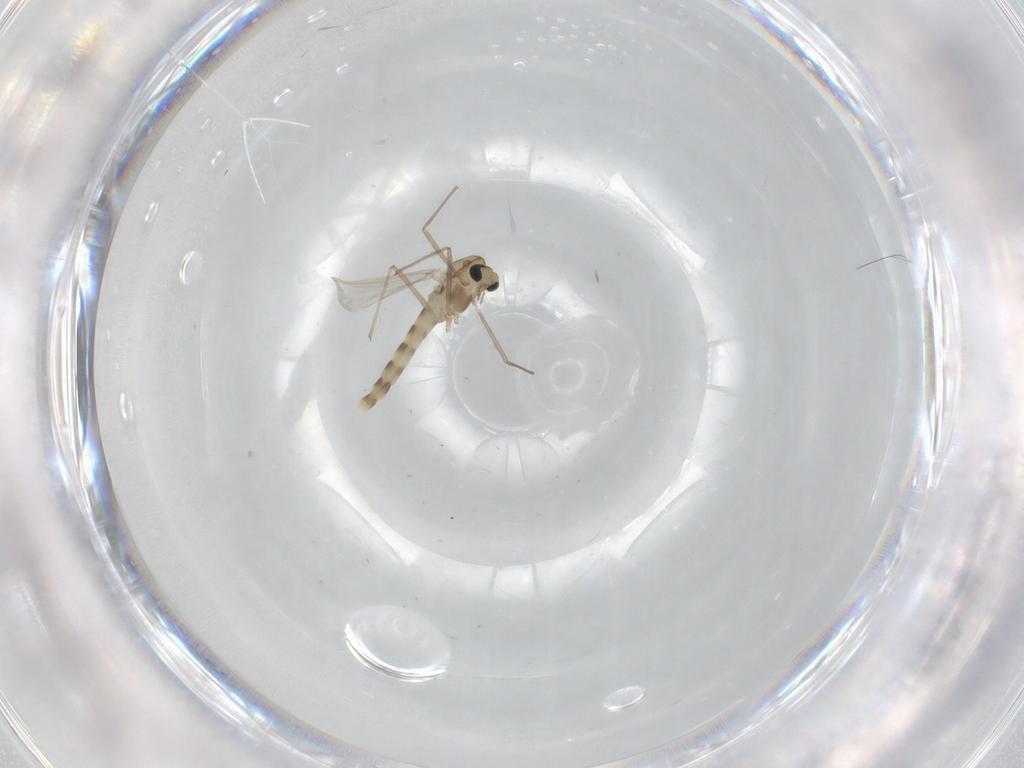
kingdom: Animalia
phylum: Arthropoda
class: Insecta
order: Diptera
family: Chironomidae
